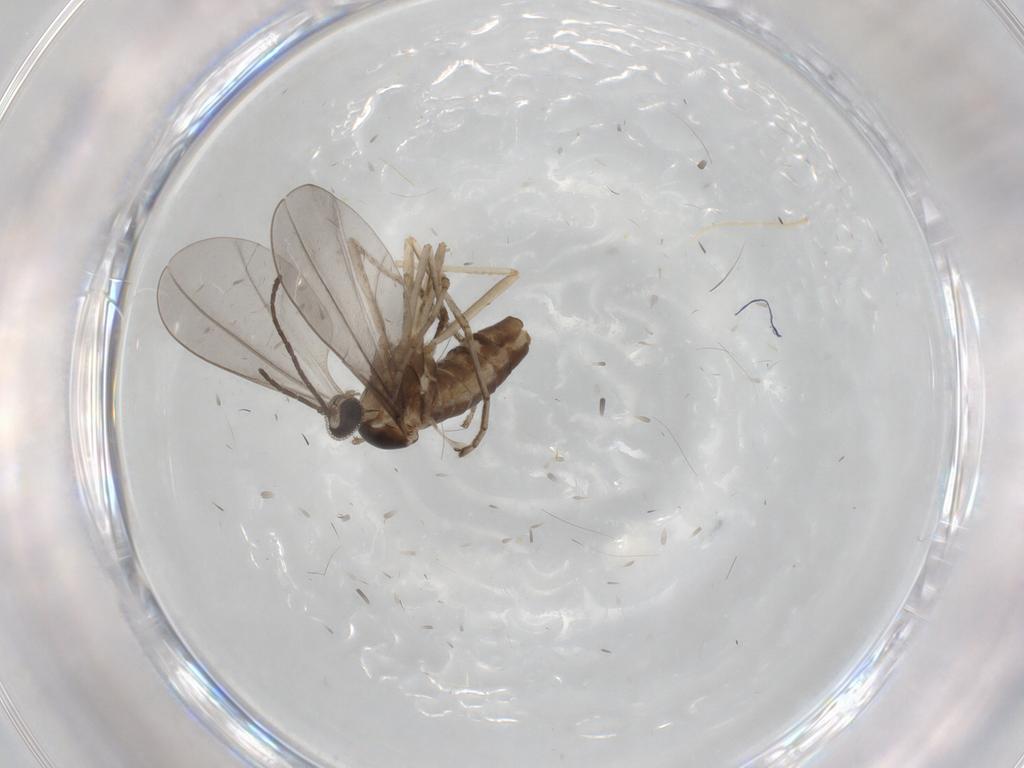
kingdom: Animalia
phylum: Arthropoda
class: Insecta
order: Diptera
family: Cecidomyiidae
